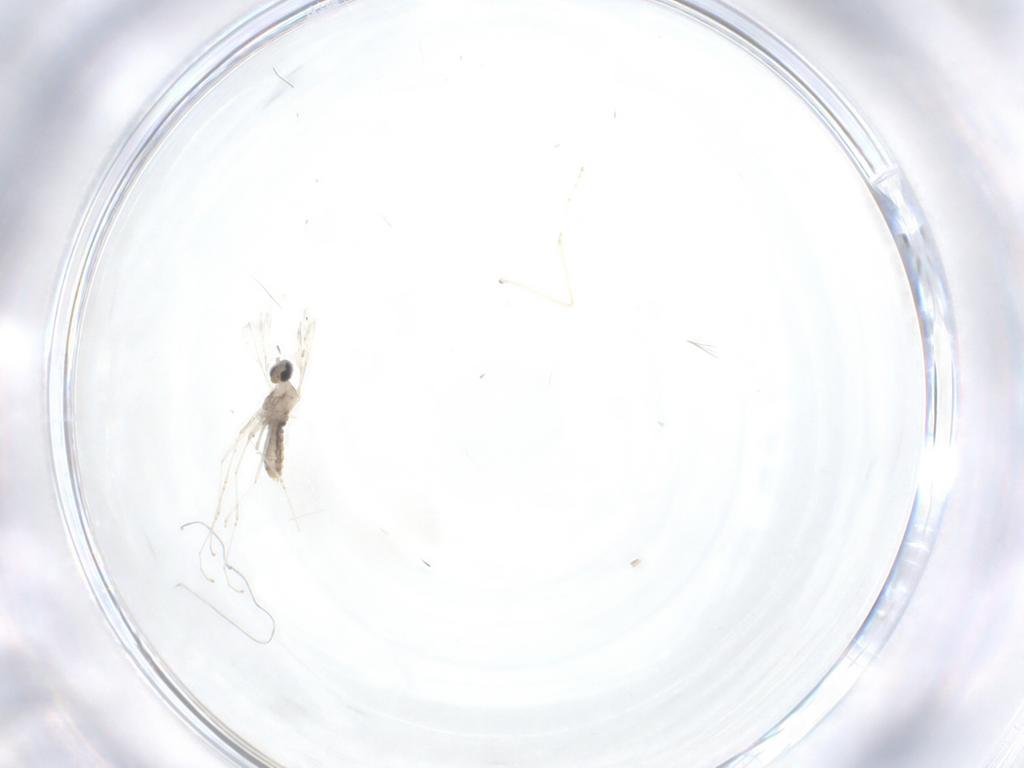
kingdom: Animalia
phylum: Arthropoda
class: Insecta
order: Diptera
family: Cecidomyiidae
